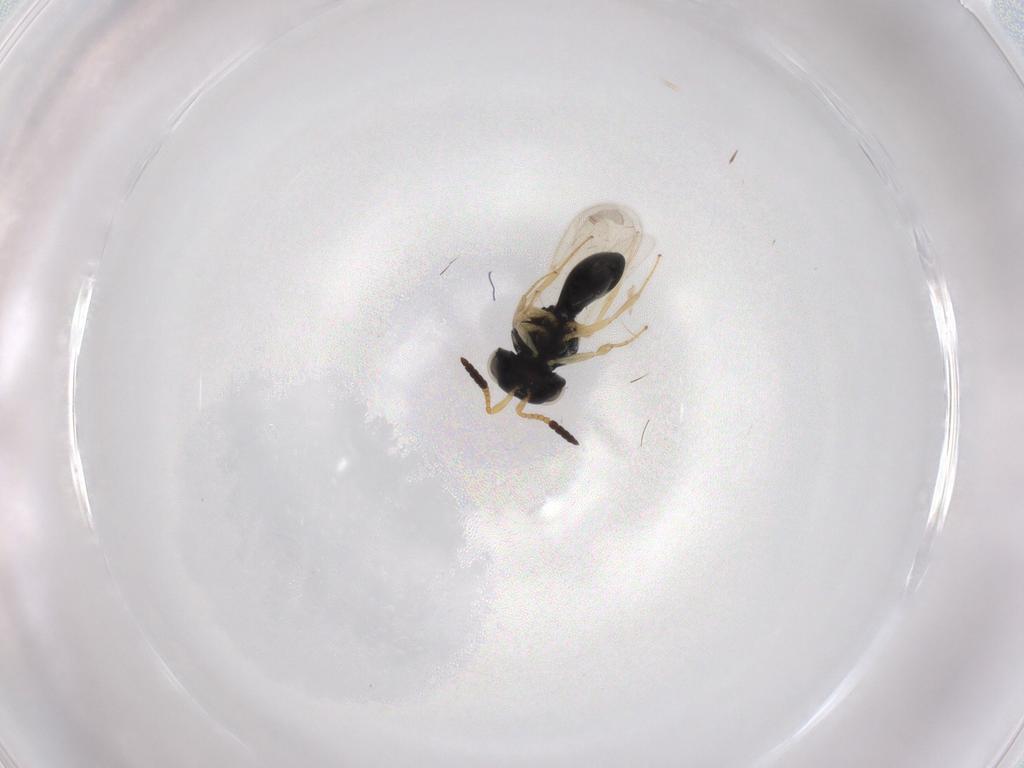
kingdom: Animalia
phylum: Arthropoda
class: Insecta
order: Hymenoptera
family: Scelionidae
